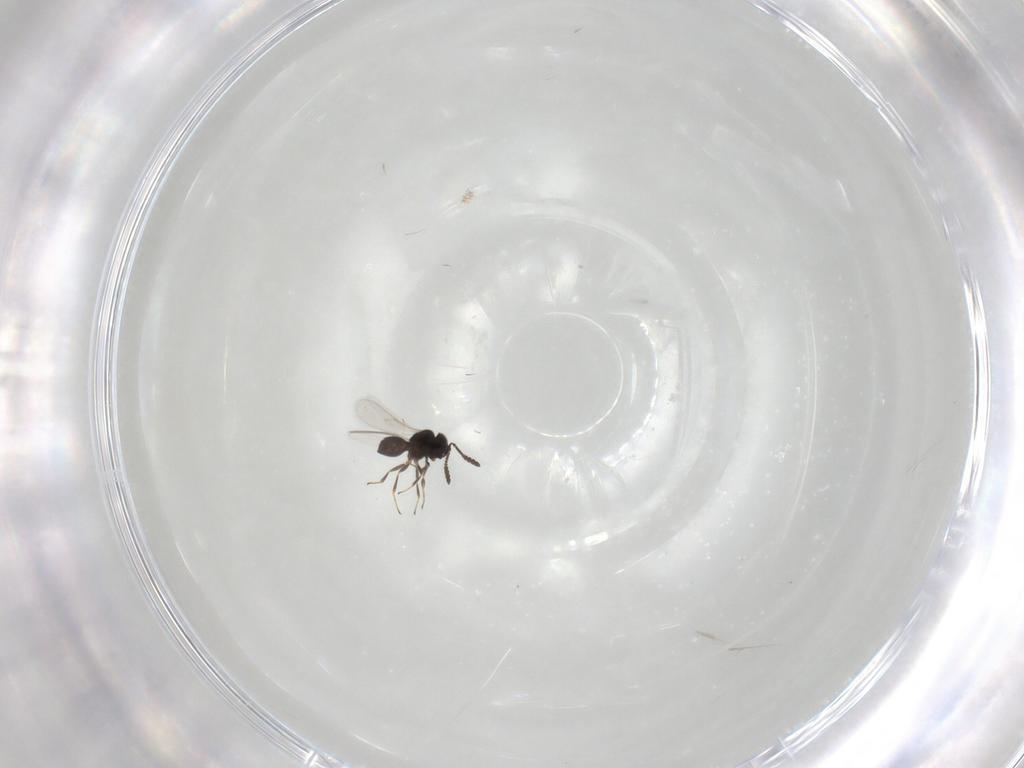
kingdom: Animalia
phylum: Arthropoda
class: Insecta
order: Hymenoptera
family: Scelionidae
